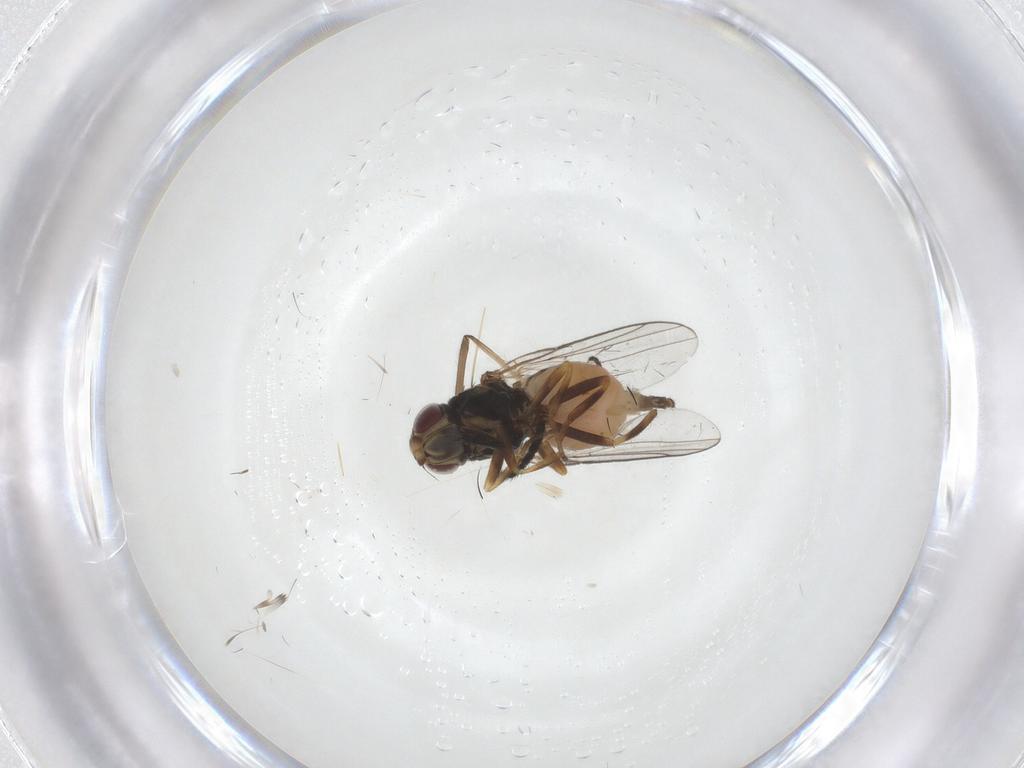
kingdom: Animalia
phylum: Arthropoda
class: Insecta
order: Diptera
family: Chloropidae
